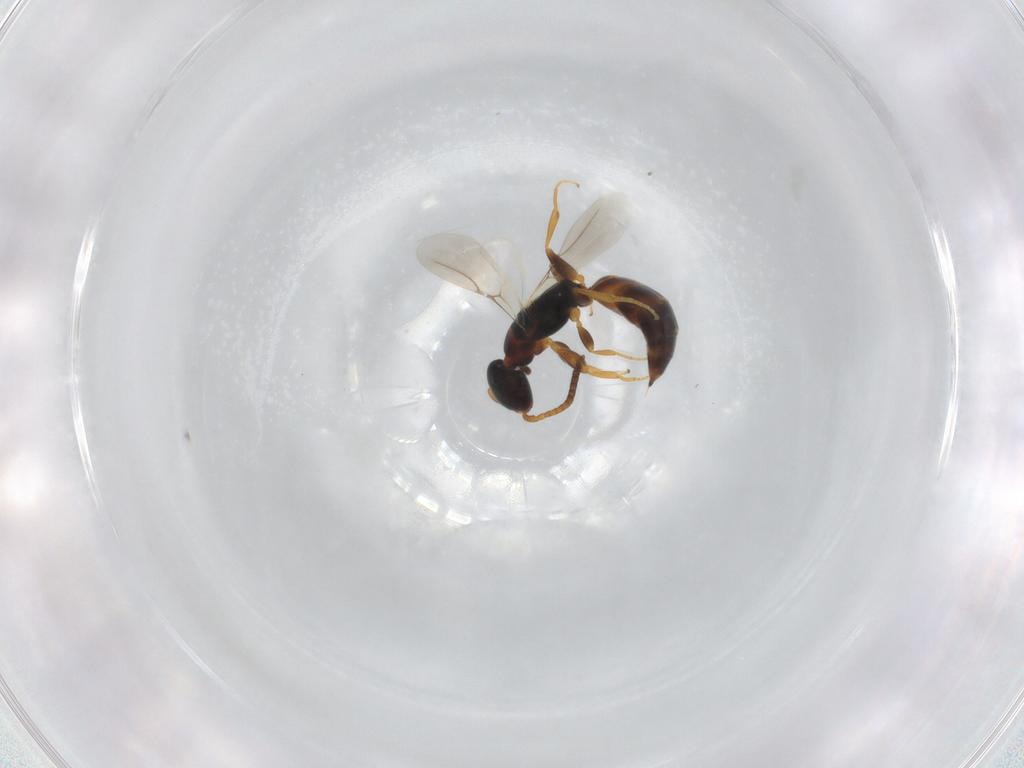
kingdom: Animalia
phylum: Arthropoda
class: Insecta
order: Hymenoptera
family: Bethylidae
